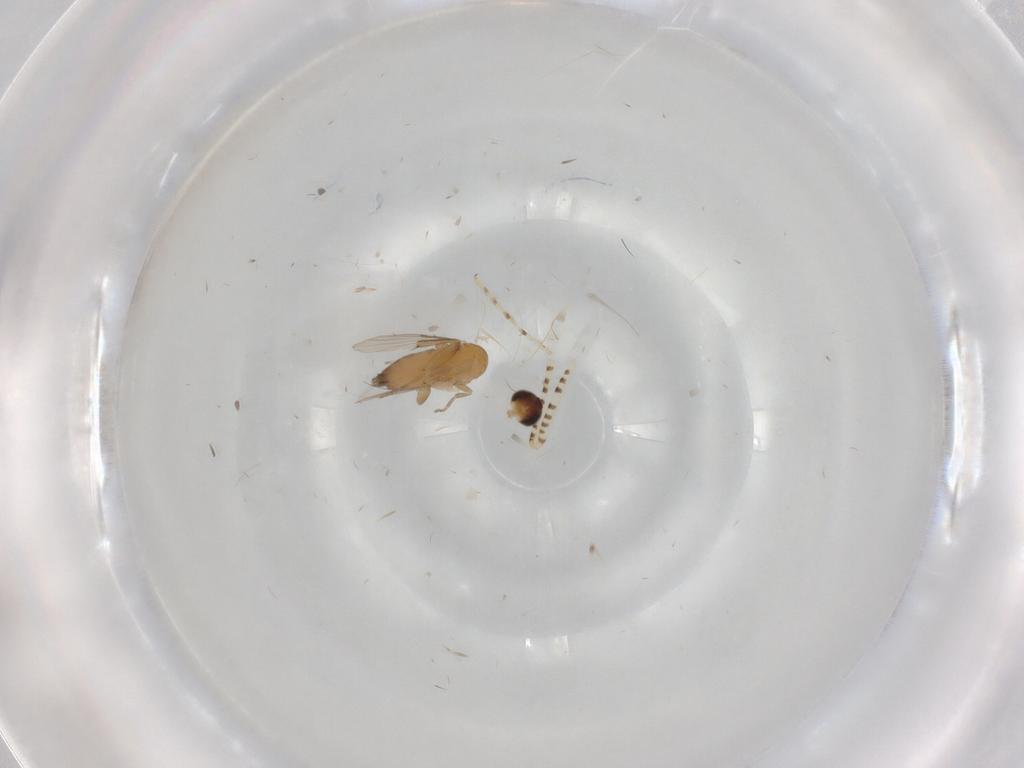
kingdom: Animalia
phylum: Arthropoda
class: Insecta
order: Diptera
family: Phoridae
